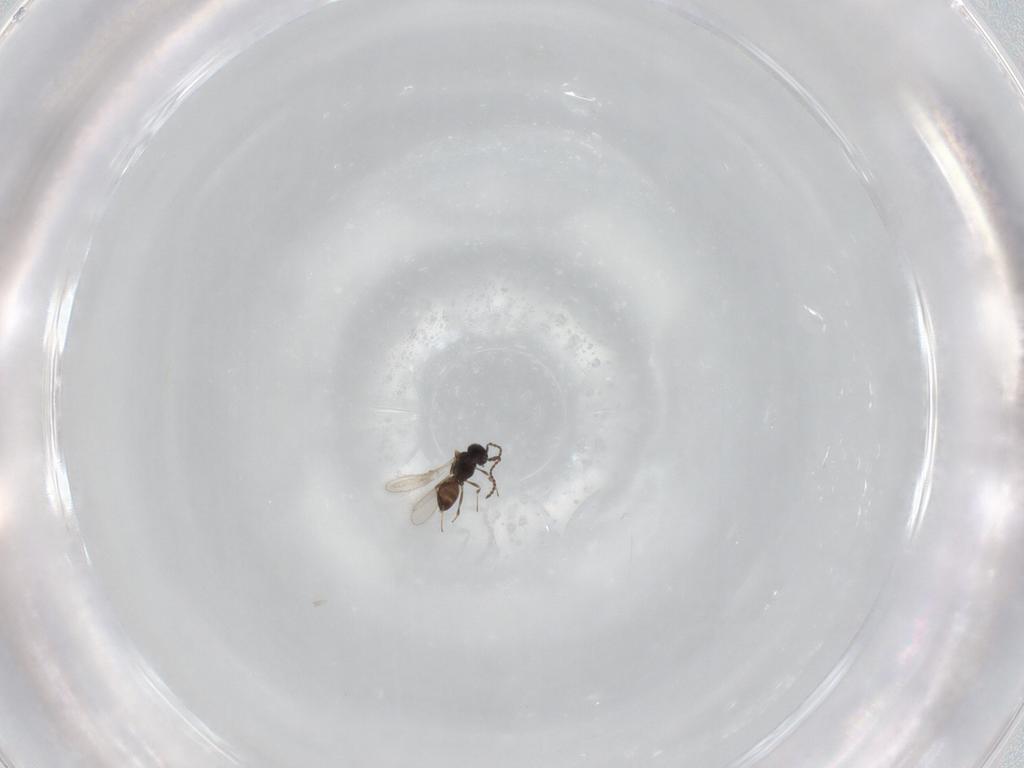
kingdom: Animalia
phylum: Arthropoda
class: Insecta
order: Hymenoptera
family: Scelionidae
